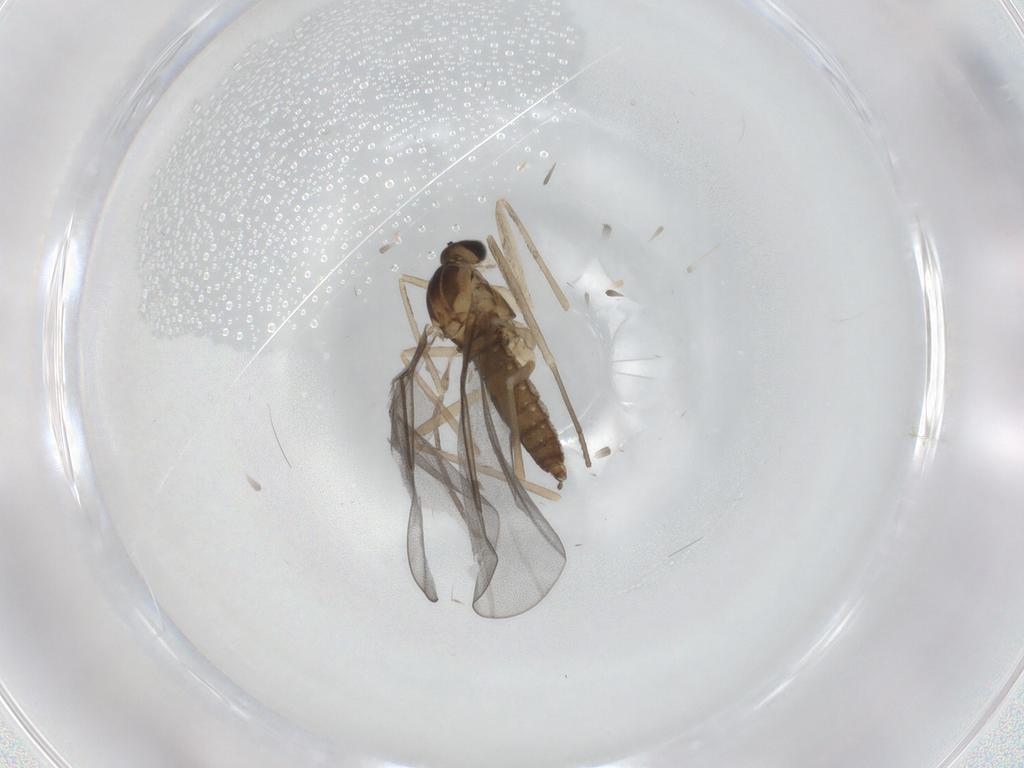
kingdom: Animalia
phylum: Arthropoda
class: Insecta
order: Diptera
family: Cecidomyiidae
